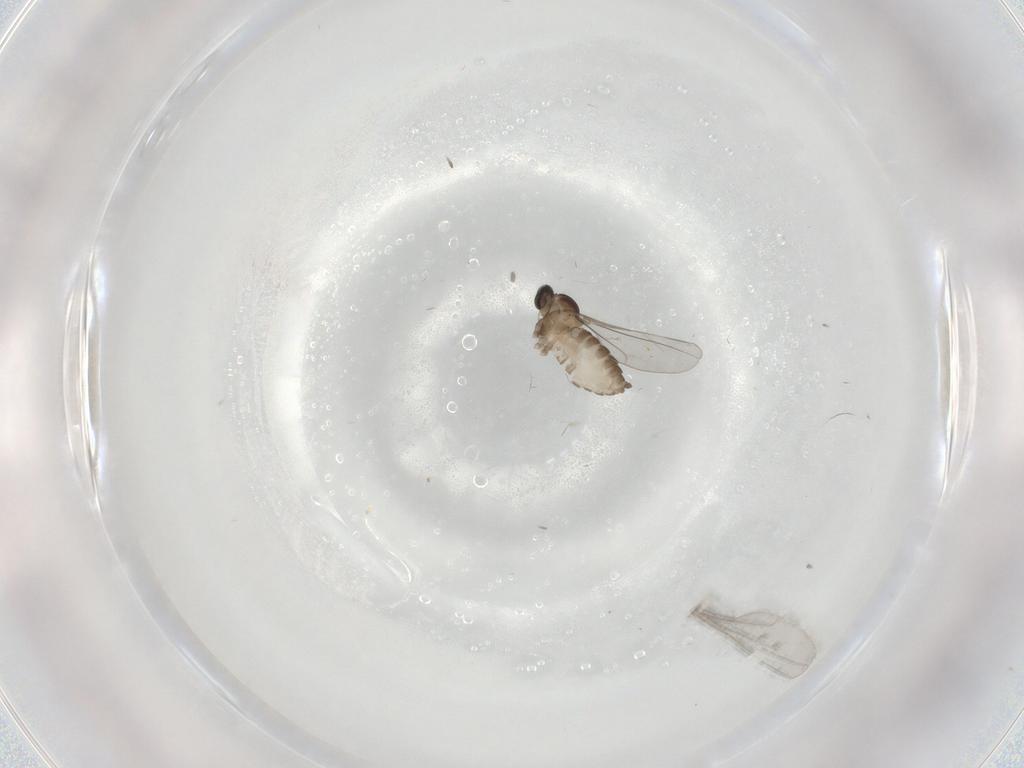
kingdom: Animalia
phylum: Arthropoda
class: Insecta
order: Diptera
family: Cecidomyiidae
